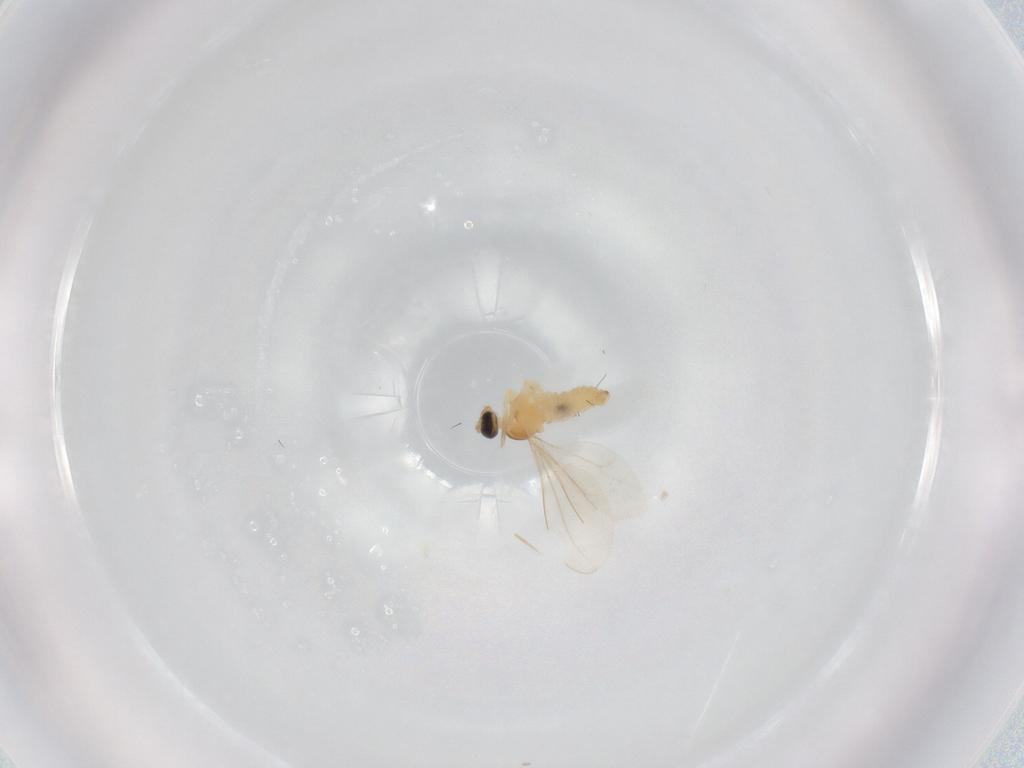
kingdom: Animalia
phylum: Arthropoda
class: Insecta
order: Diptera
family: Cecidomyiidae
